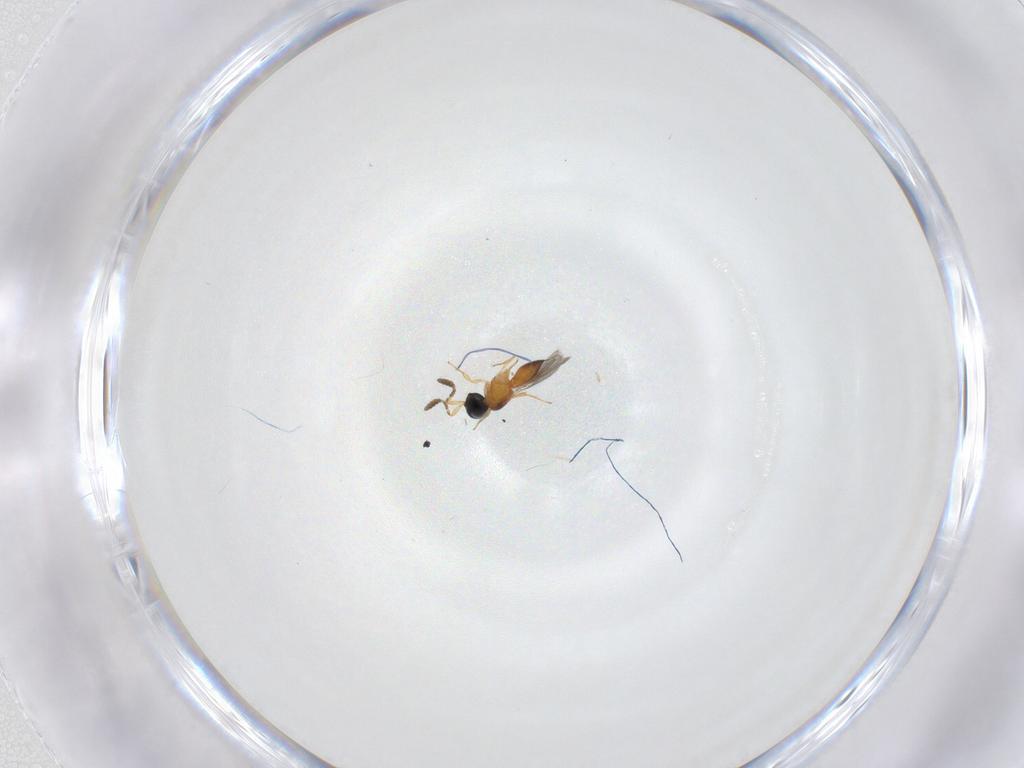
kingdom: Animalia
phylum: Arthropoda
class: Insecta
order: Hymenoptera
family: Scelionidae
